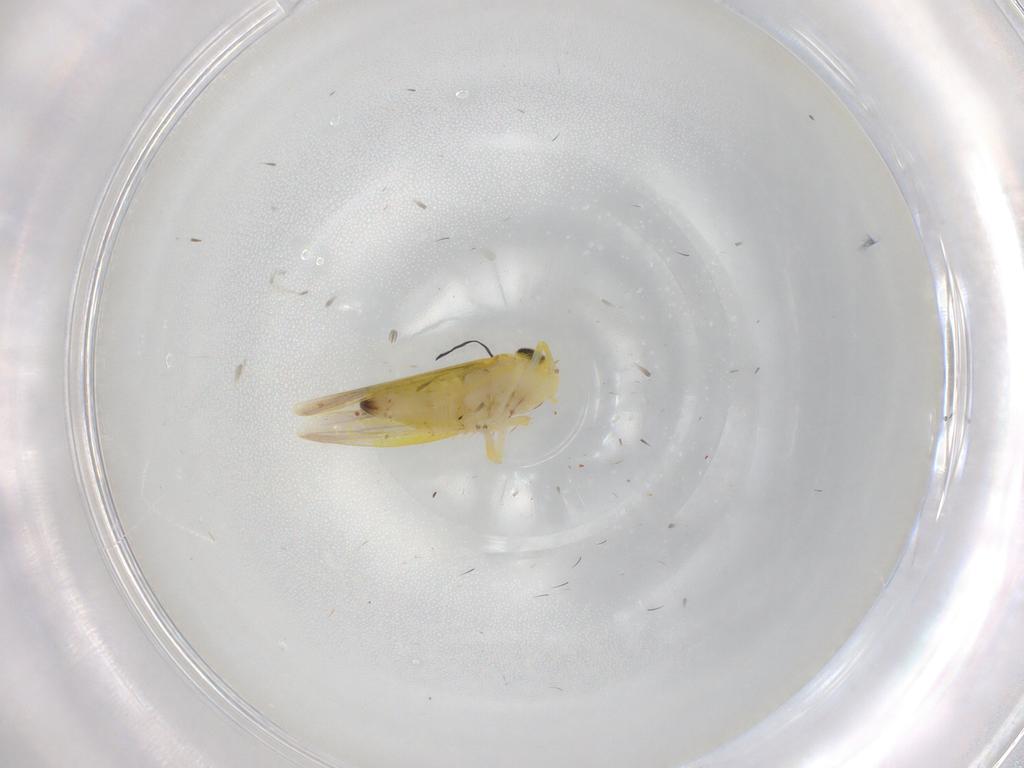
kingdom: Animalia
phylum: Arthropoda
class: Insecta
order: Hemiptera
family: Cicadellidae
